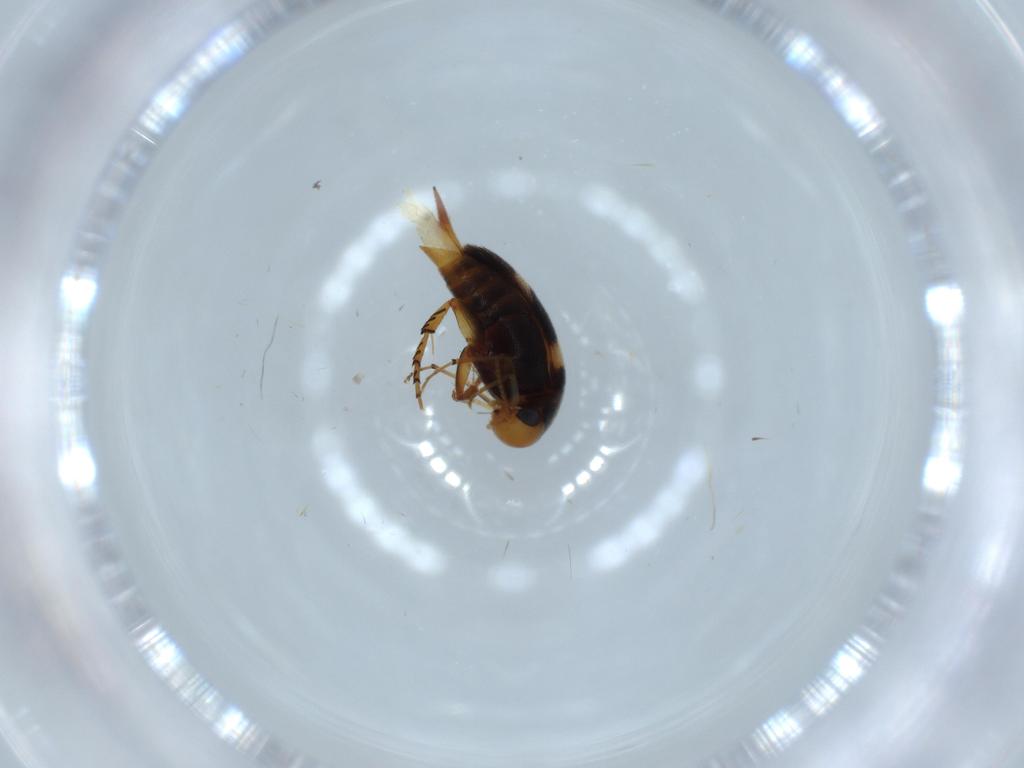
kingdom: Animalia
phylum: Arthropoda
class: Insecta
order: Coleoptera
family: Mordellidae
